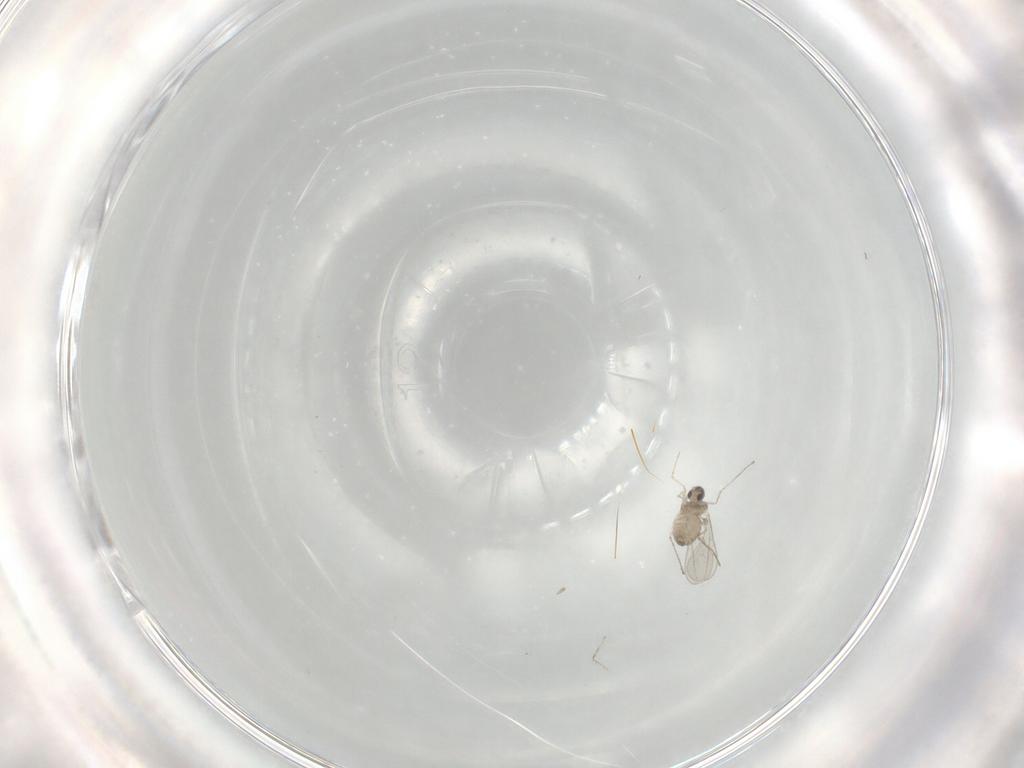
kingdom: Animalia
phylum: Arthropoda
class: Insecta
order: Diptera
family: Cecidomyiidae
